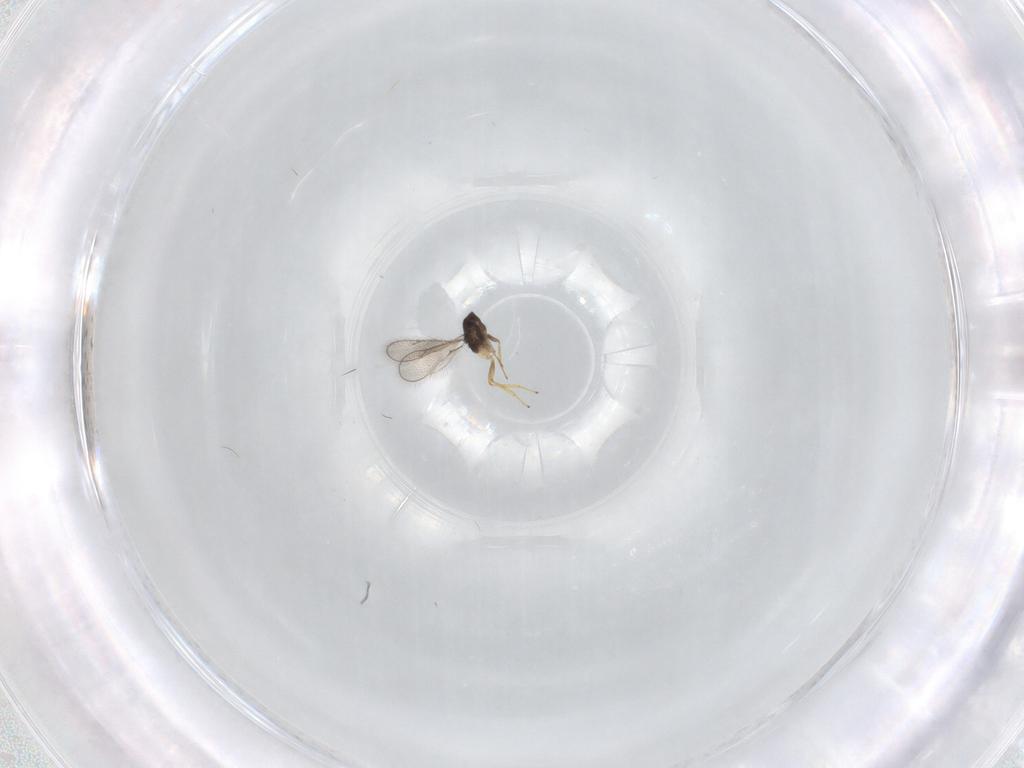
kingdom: Animalia
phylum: Arthropoda
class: Insecta
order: Hymenoptera
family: Eulophidae
